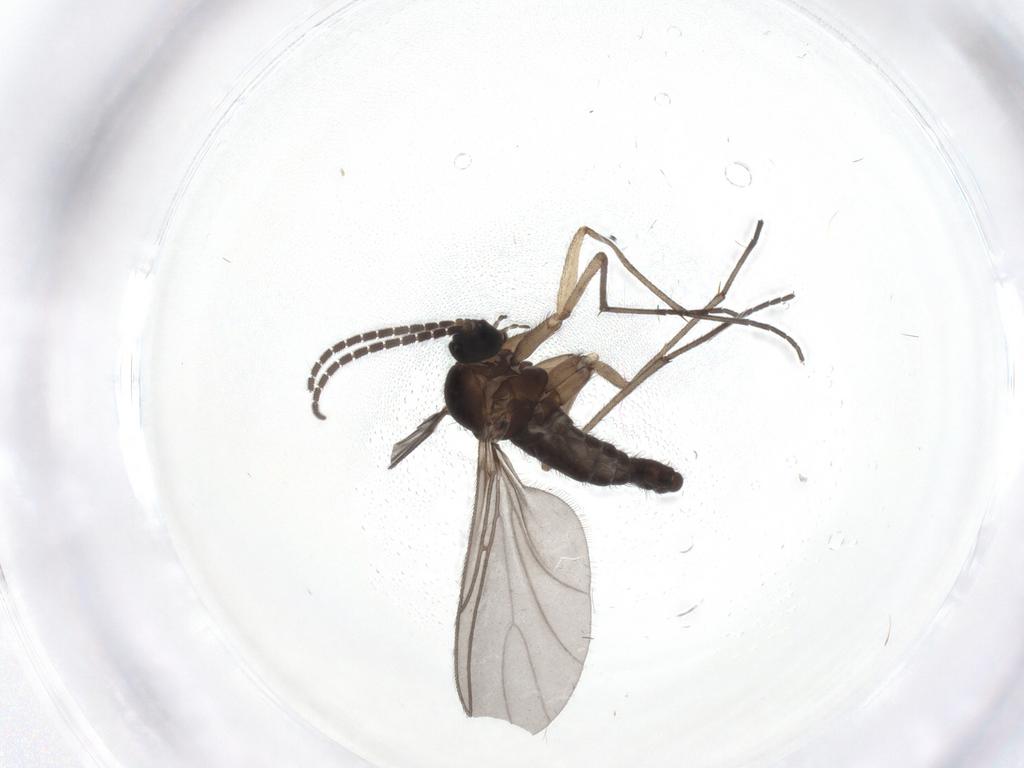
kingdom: Animalia
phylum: Arthropoda
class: Insecta
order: Diptera
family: Sciaridae
